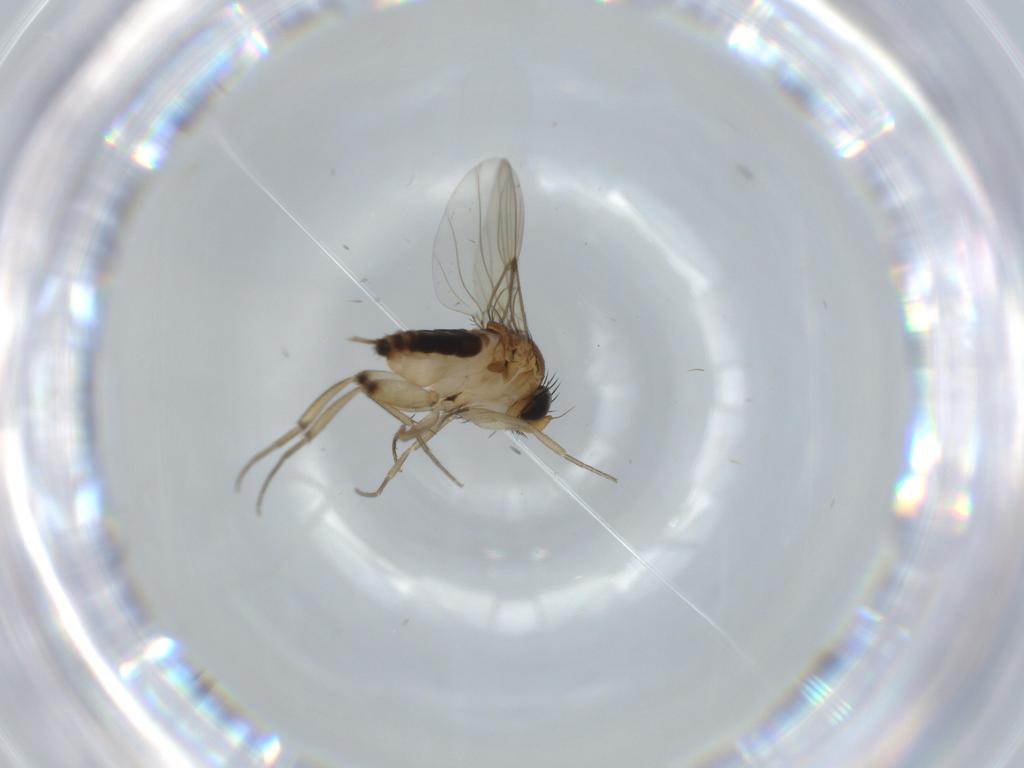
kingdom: Animalia
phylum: Arthropoda
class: Insecta
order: Diptera
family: Phoridae
